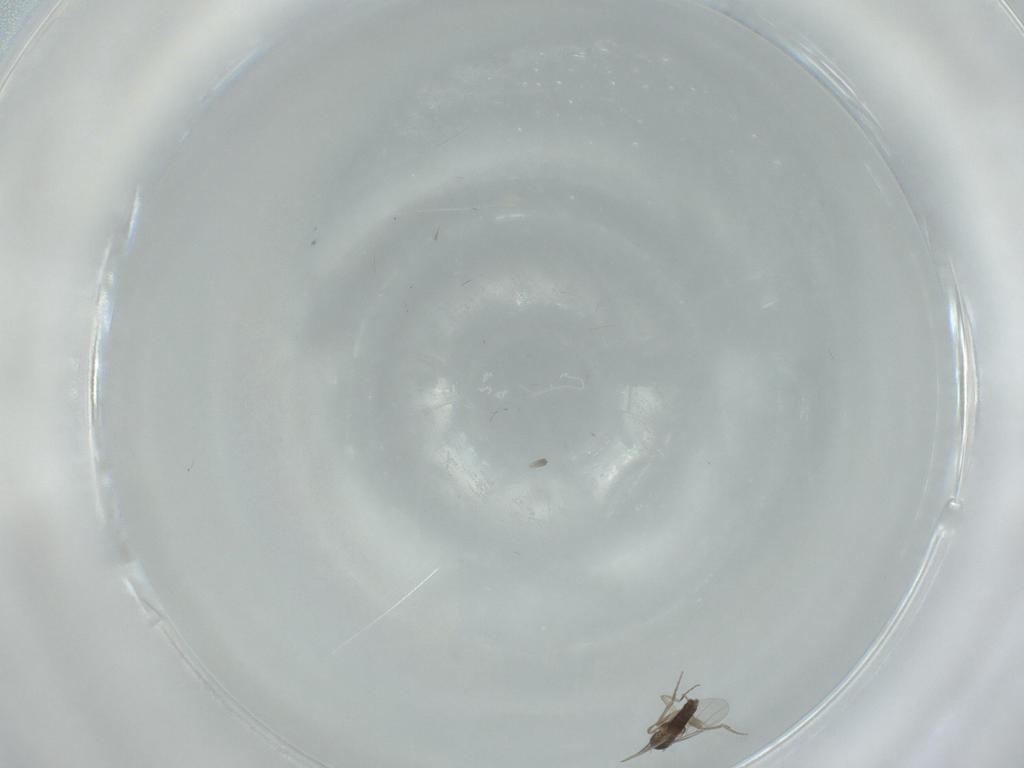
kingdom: Animalia
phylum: Arthropoda
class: Insecta
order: Diptera
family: Phoridae
